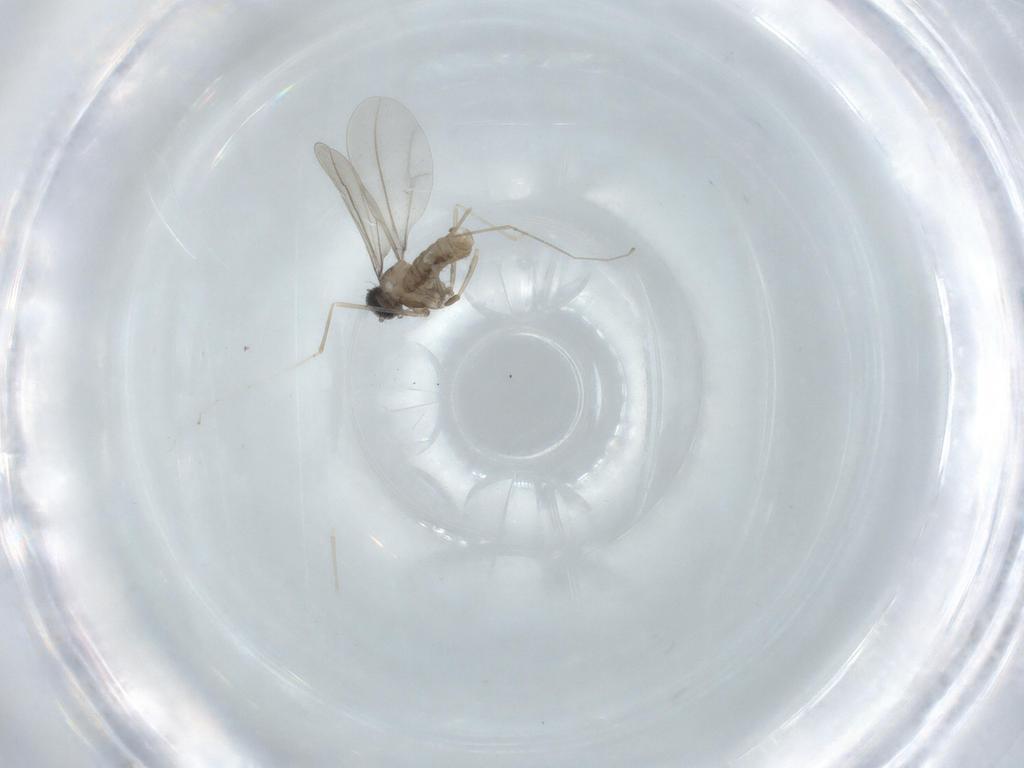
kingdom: Animalia
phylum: Arthropoda
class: Insecta
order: Diptera
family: Cecidomyiidae
